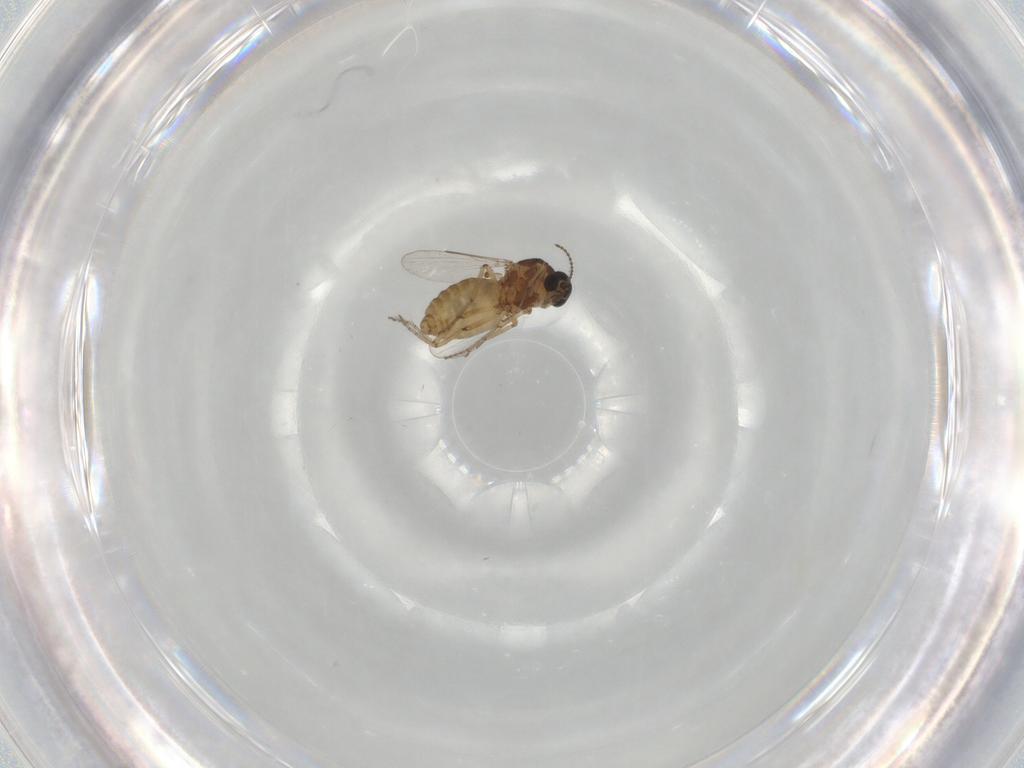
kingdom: Animalia
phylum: Arthropoda
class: Insecta
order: Diptera
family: Ceratopogonidae
